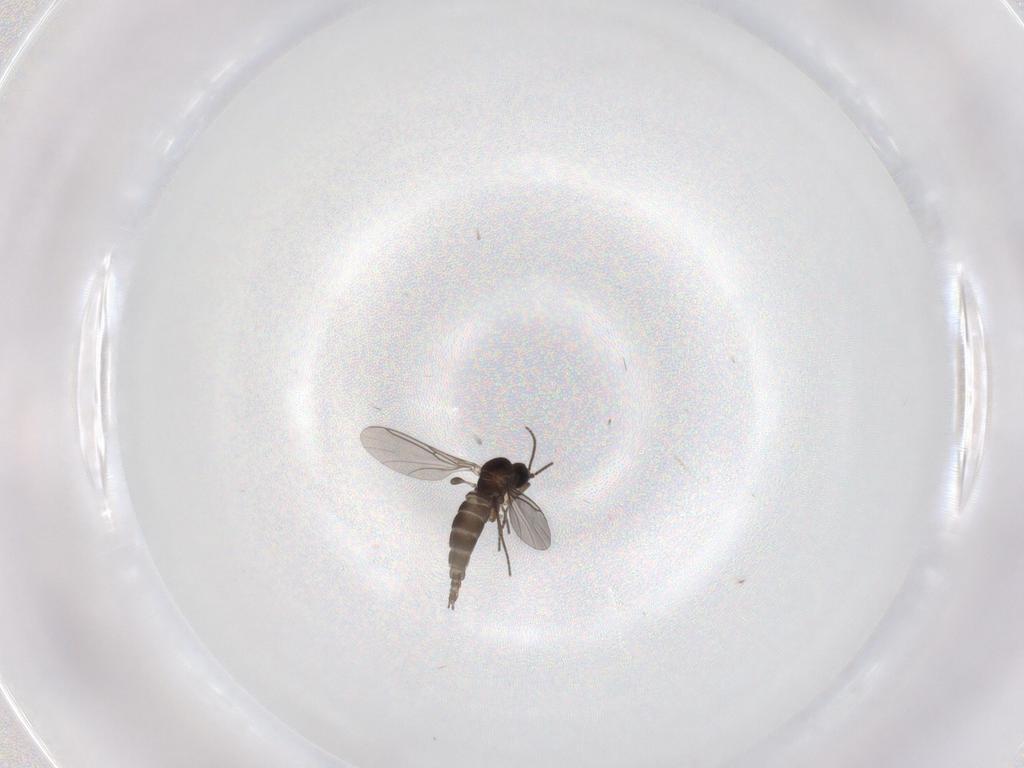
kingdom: Animalia
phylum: Arthropoda
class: Insecta
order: Diptera
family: Sciaridae
